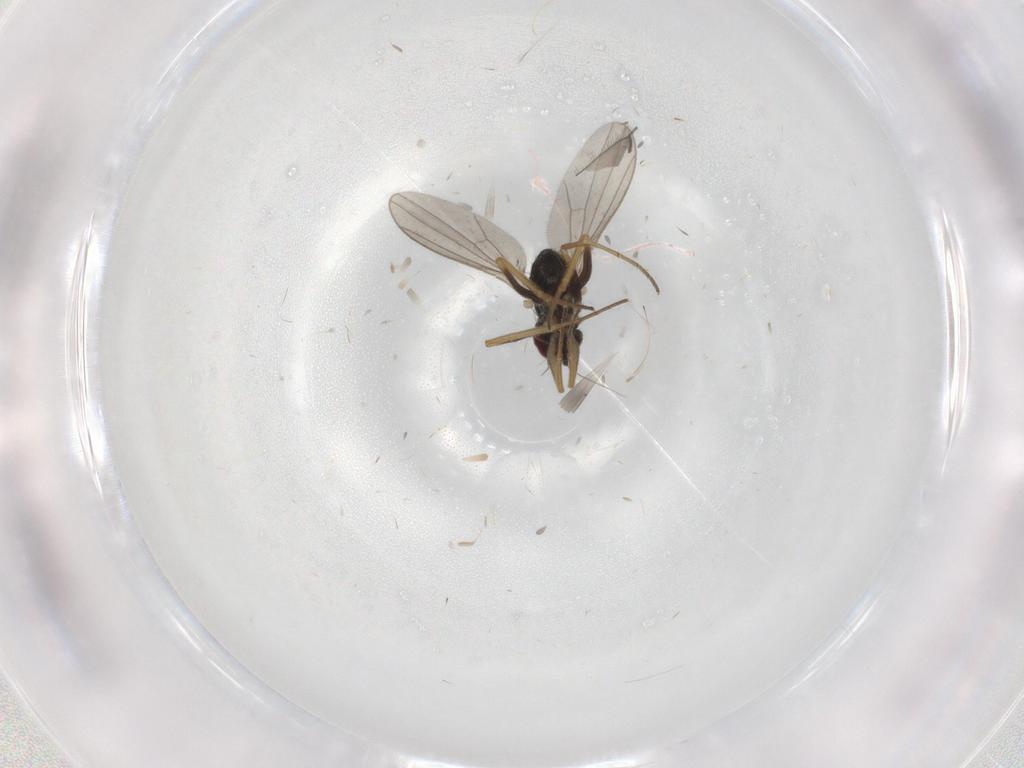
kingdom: Animalia
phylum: Arthropoda
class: Insecta
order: Diptera
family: Dolichopodidae
